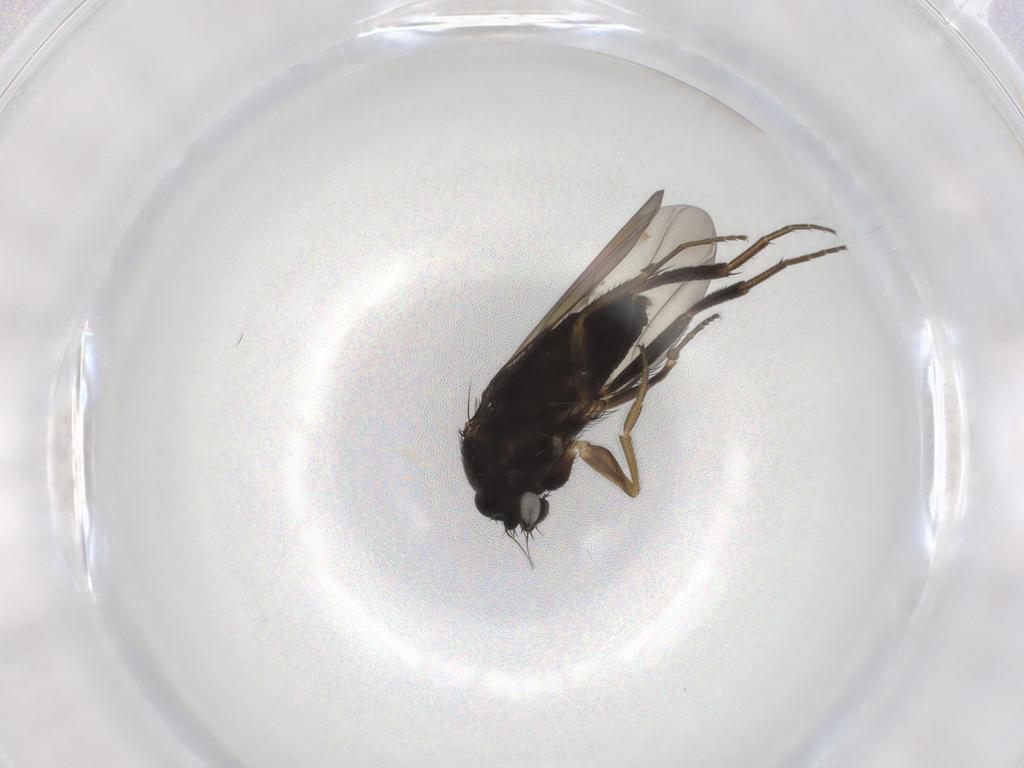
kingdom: Animalia
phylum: Arthropoda
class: Insecta
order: Diptera
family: Phoridae
